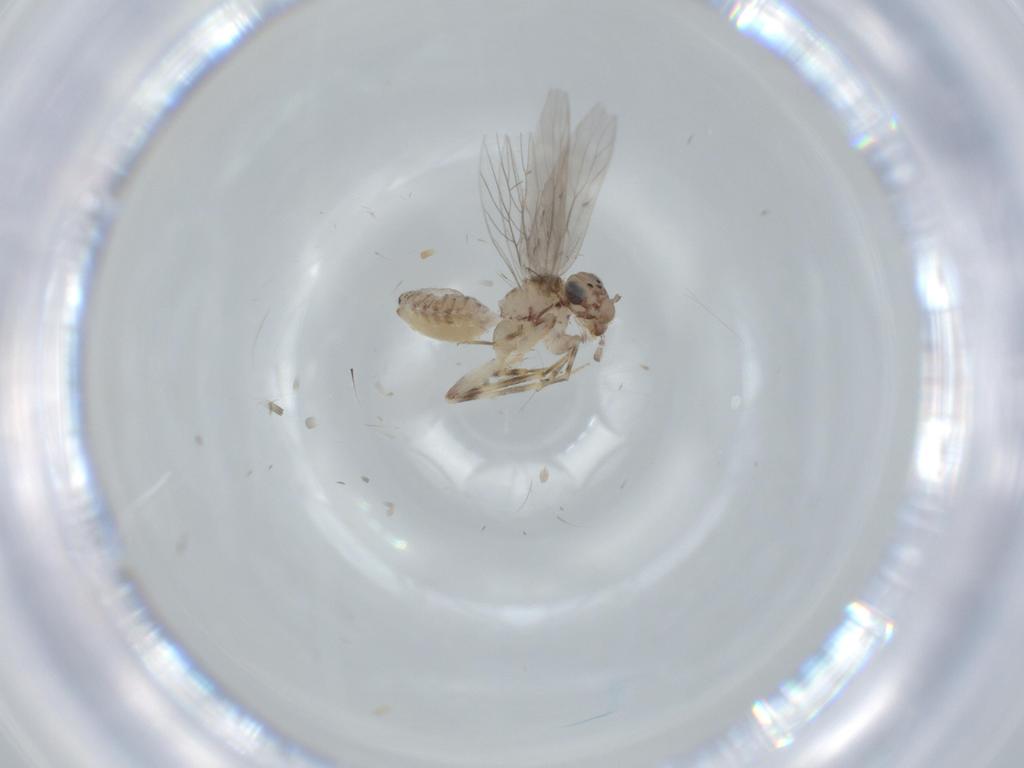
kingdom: Animalia
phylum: Arthropoda
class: Insecta
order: Psocodea
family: Lepidopsocidae
